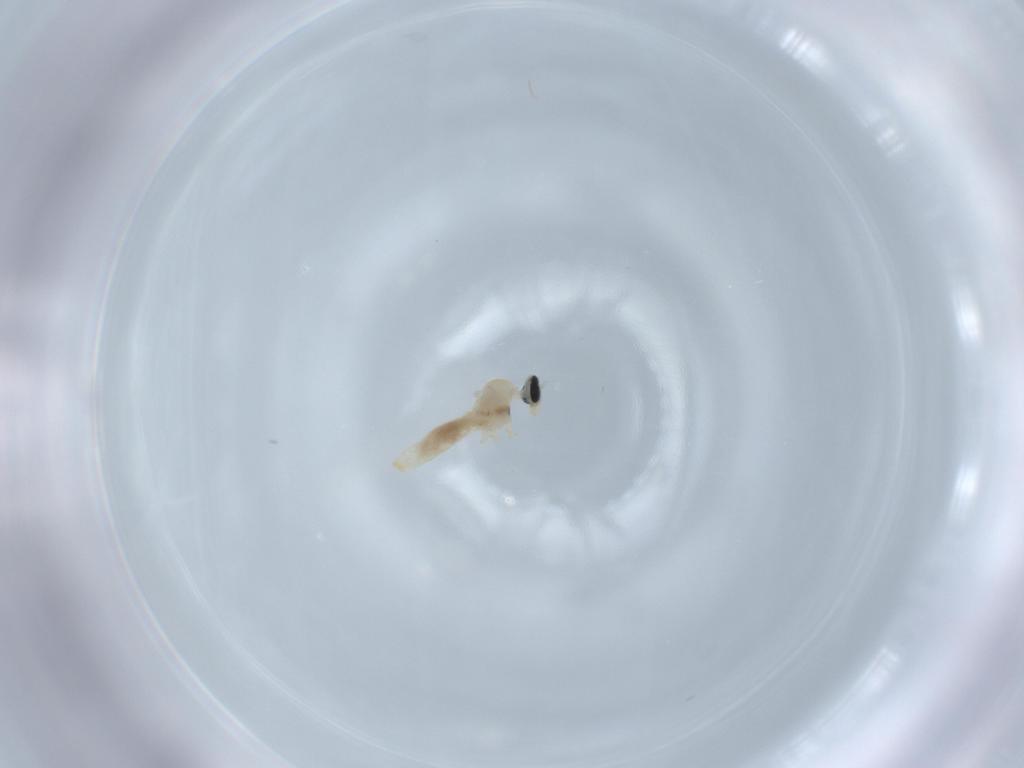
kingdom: Animalia
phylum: Arthropoda
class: Insecta
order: Diptera
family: Cecidomyiidae
